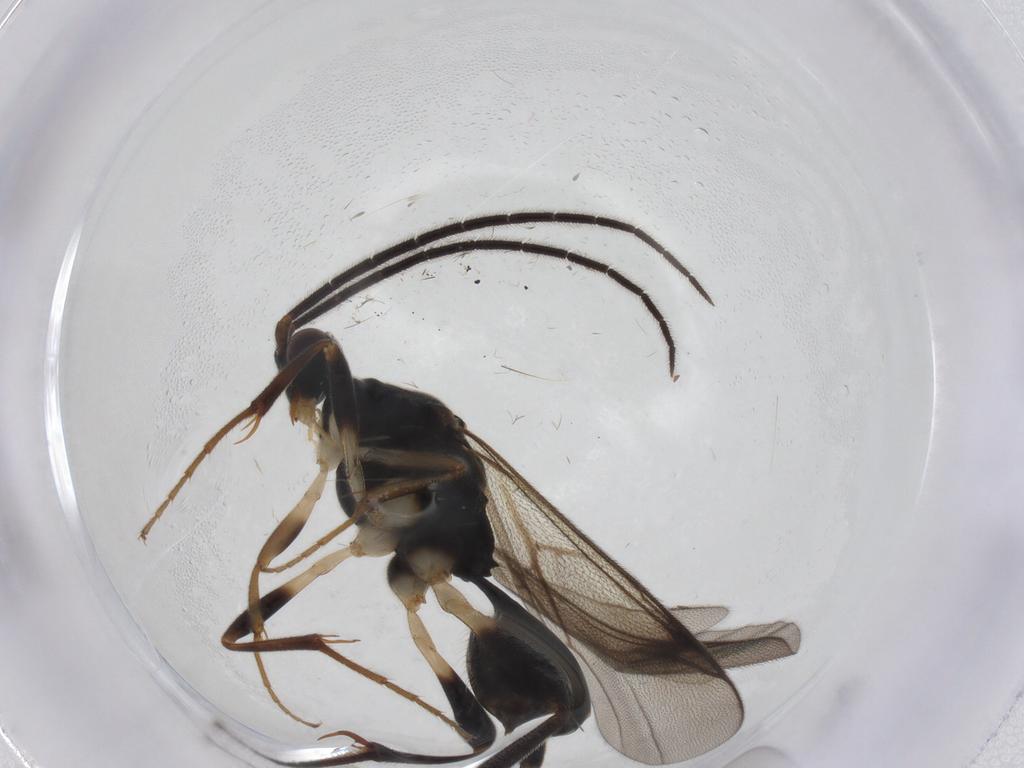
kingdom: Animalia
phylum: Arthropoda
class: Insecta
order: Hymenoptera
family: Proctotrupidae
